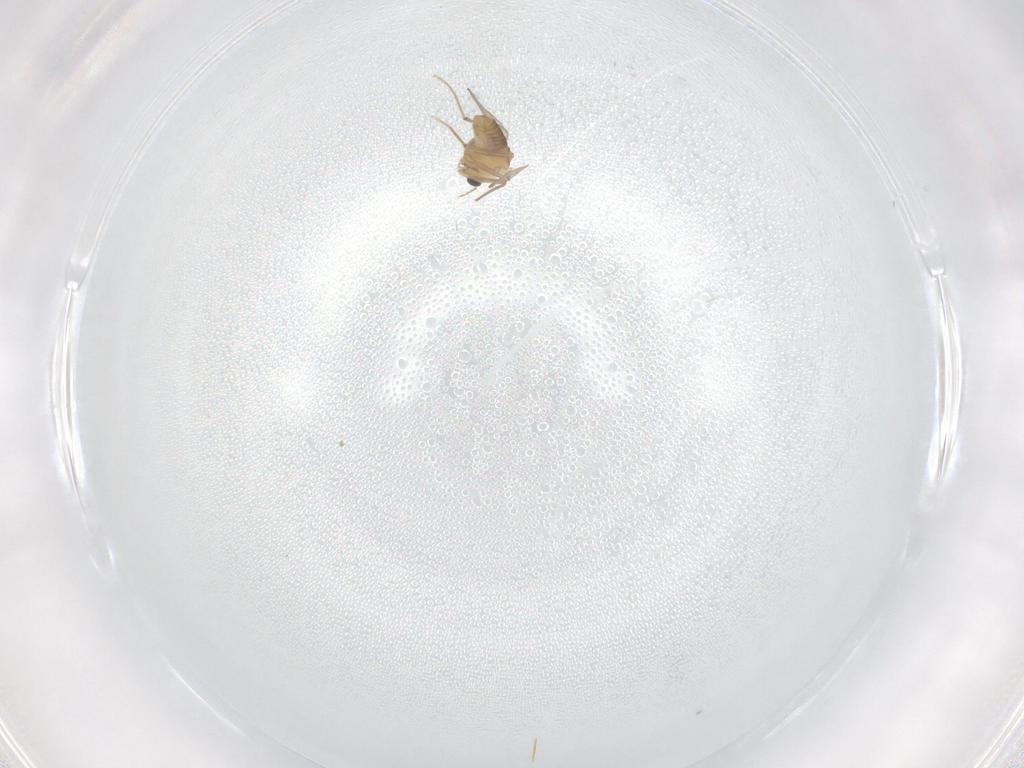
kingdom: Animalia
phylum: Arthropoda
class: Insecta
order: Diptera
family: Chironomidae
